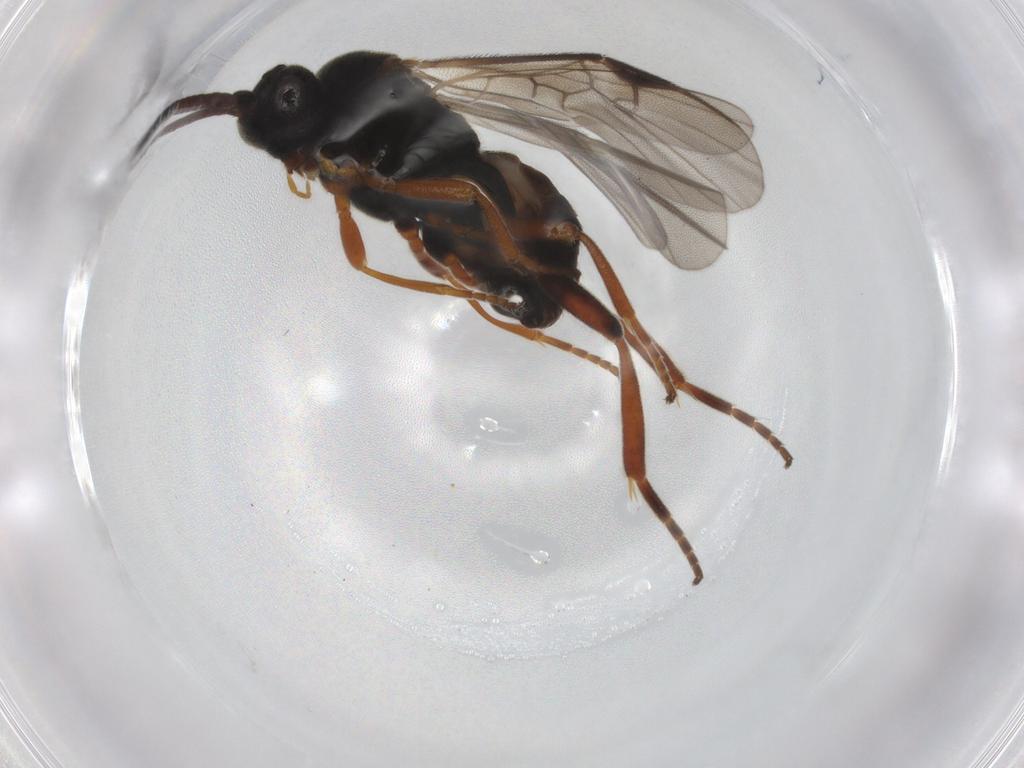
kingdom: Animalia
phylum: Arthropoda
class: Insecta
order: Hymenoptera
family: Braconidae
